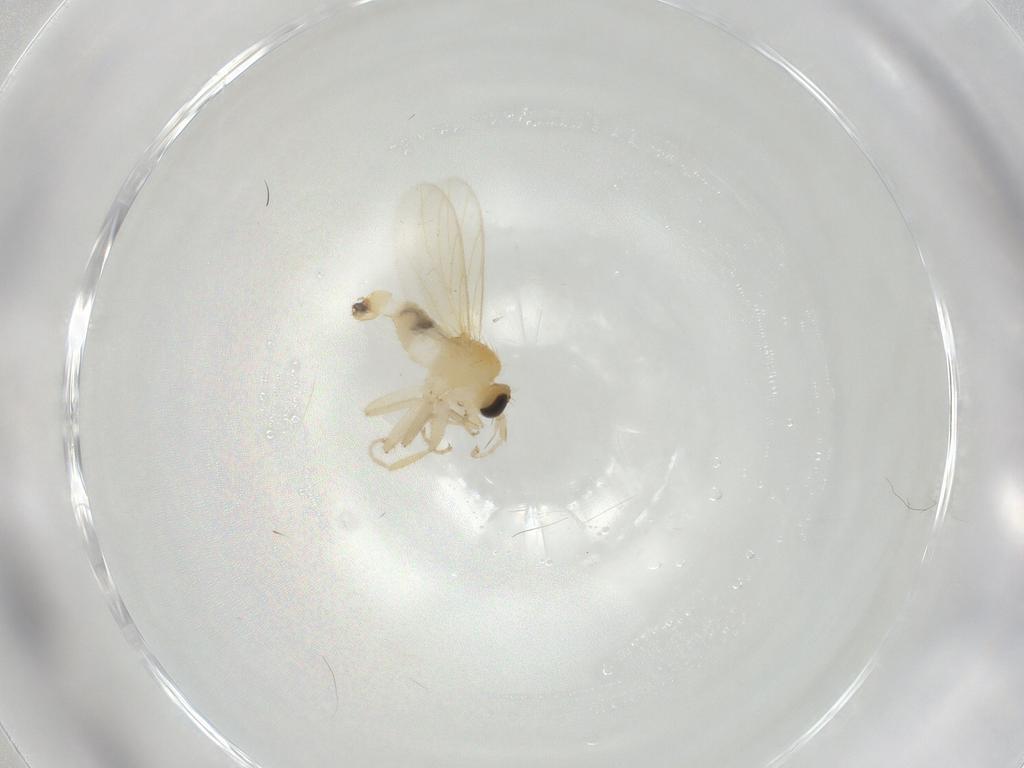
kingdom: Animalia
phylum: Arthropoda
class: Insecta
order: Diptera
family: Hybotidae
